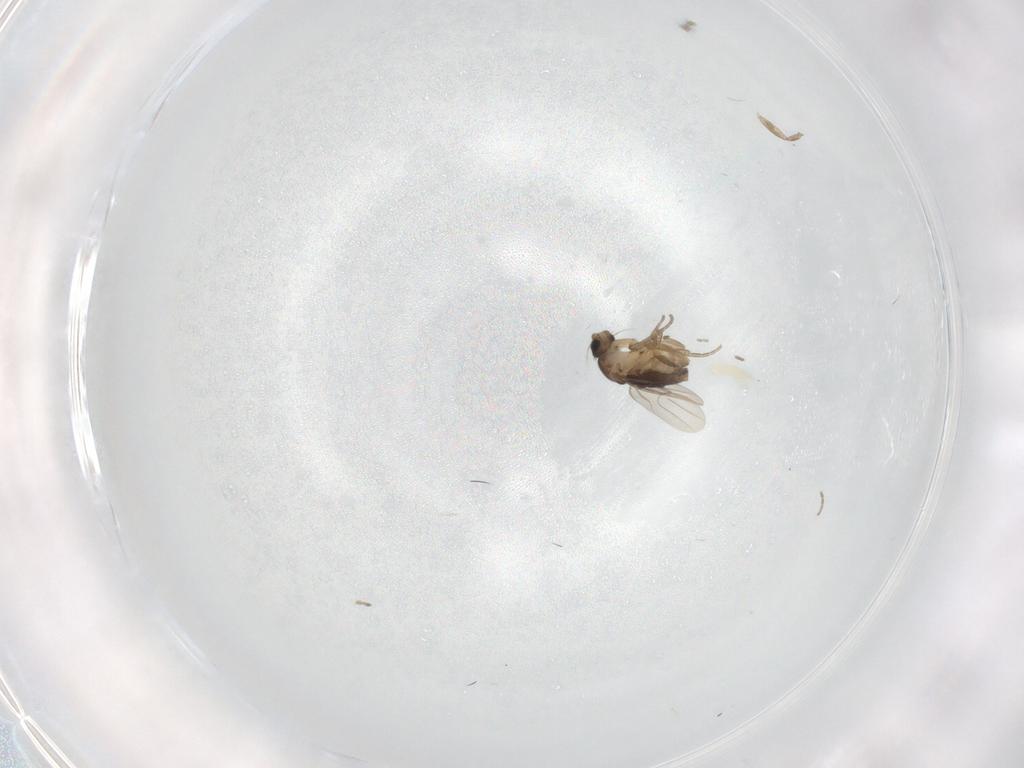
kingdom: Animalia
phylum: Arthropoda
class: Insecta
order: Diptera
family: Phoridae
